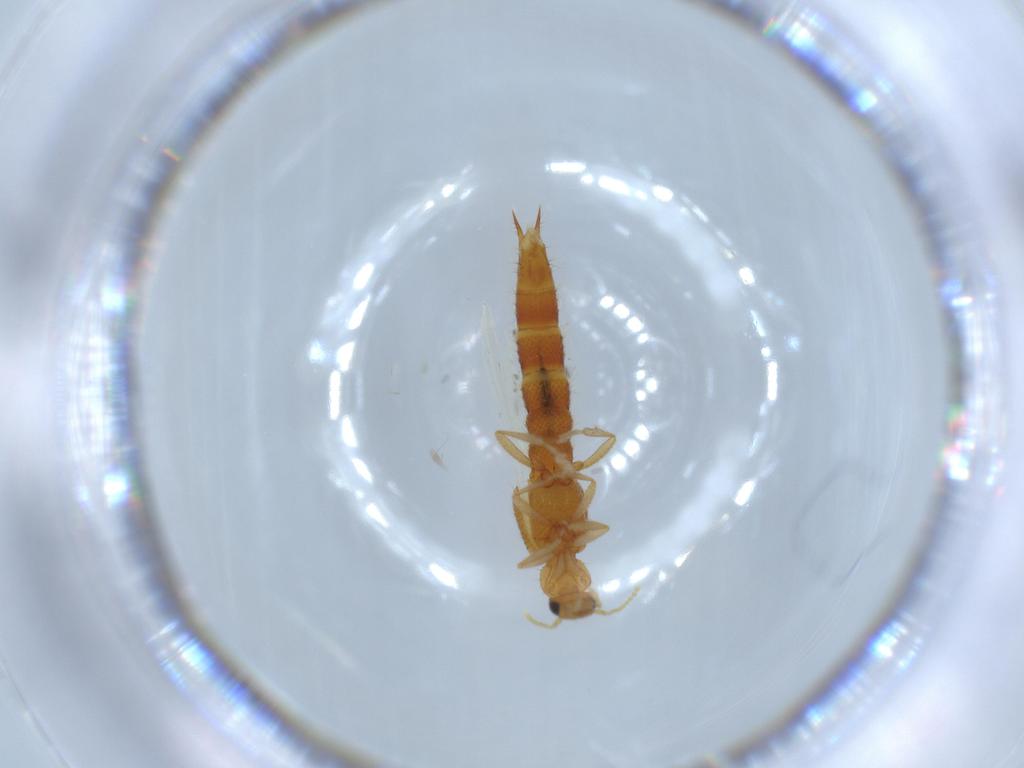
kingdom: Animalia
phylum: Arthropoda
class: Insecta
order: Coleoptera
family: Staphylinidae
